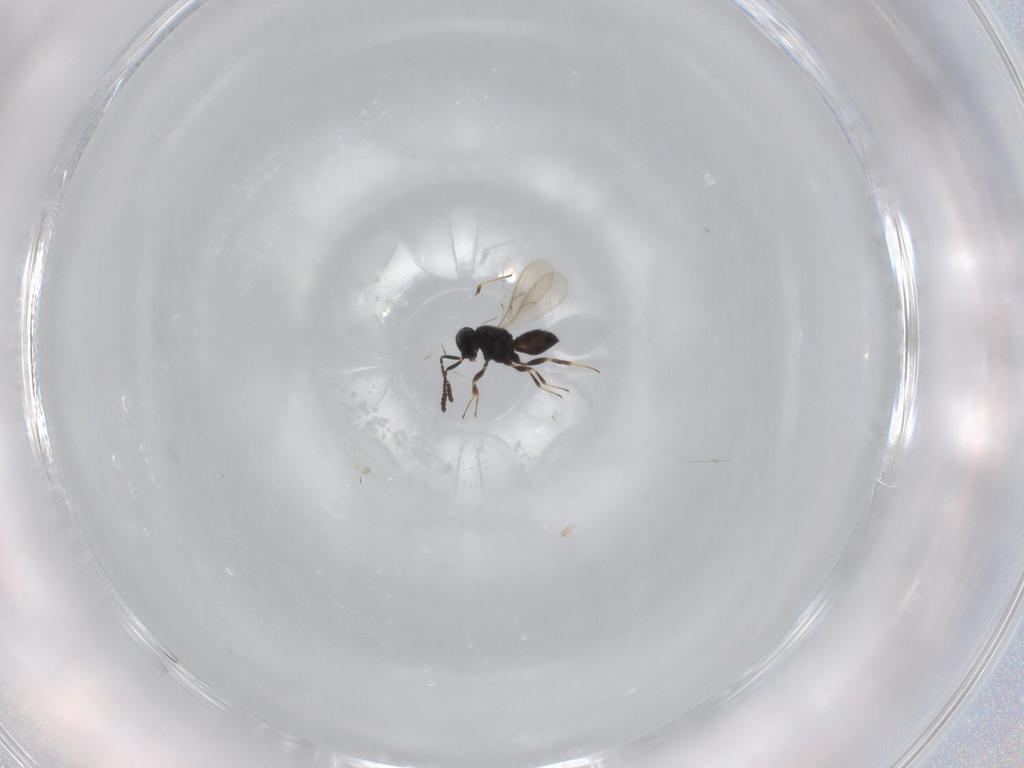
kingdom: Animalia
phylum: Arthropoda
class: Insecta
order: Hymenoptera
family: Scelionidae
